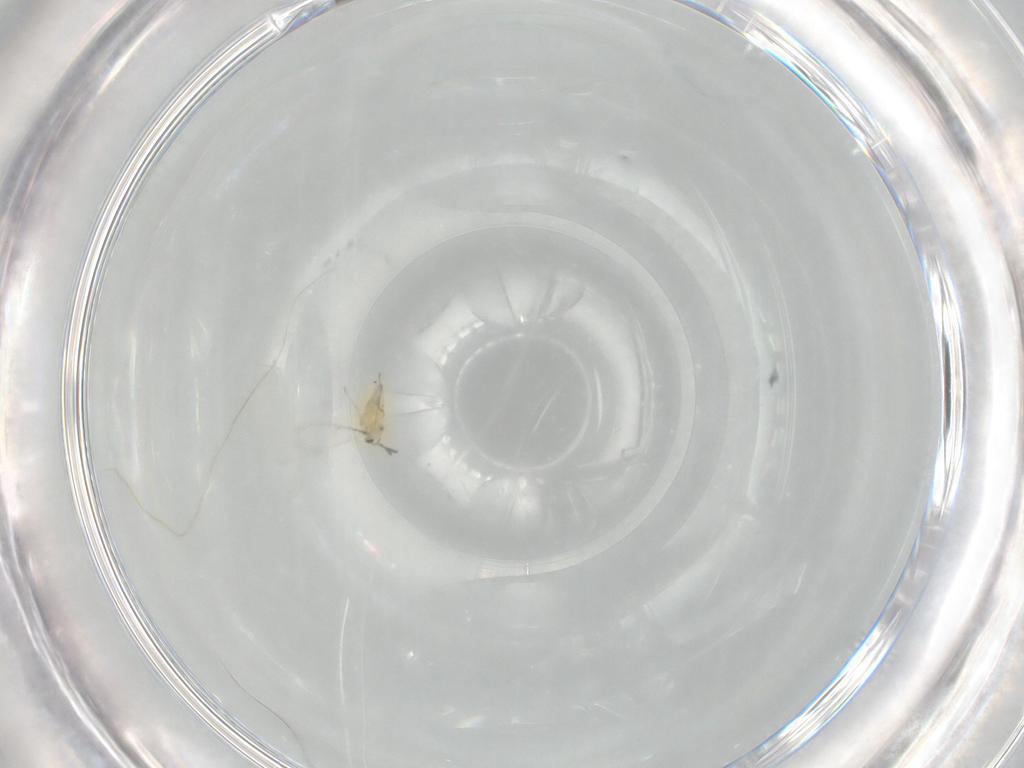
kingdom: Animalia
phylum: Arthropoda
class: Insecta
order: Hymenoptera
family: Formicidae
